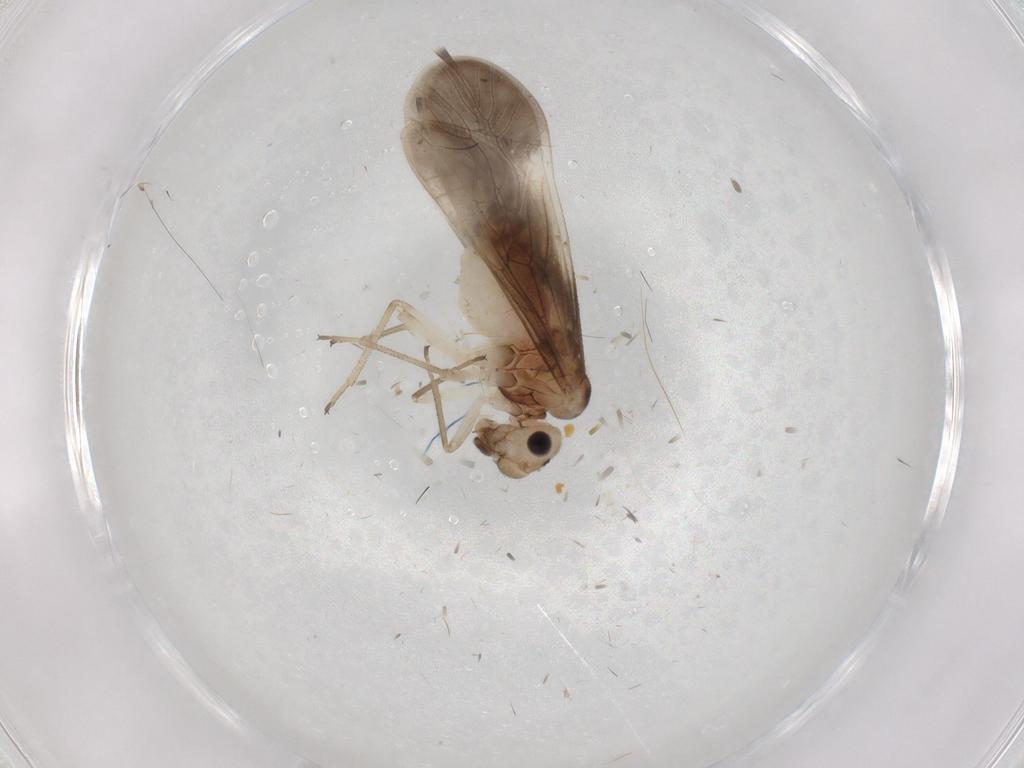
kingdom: Animalia
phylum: Arthropoda
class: Insecta
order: Psocodea
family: Caeciliusidae
